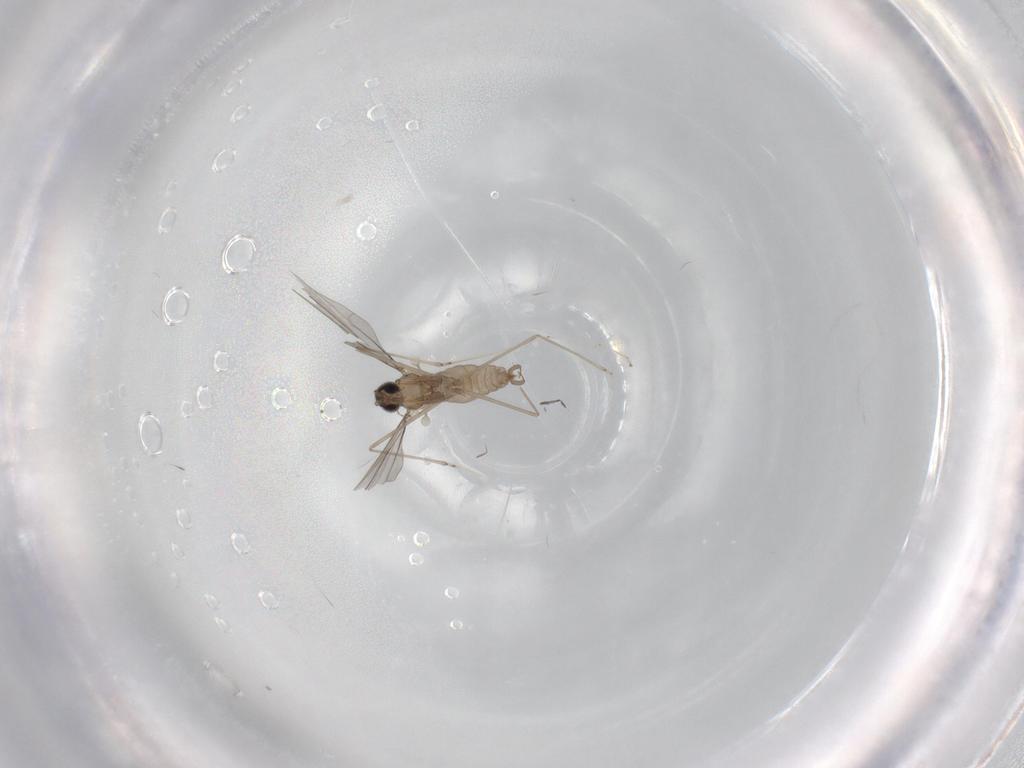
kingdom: Animalia
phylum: Arthropoda
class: Insecta
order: Diptera
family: Cecidomyiidae
